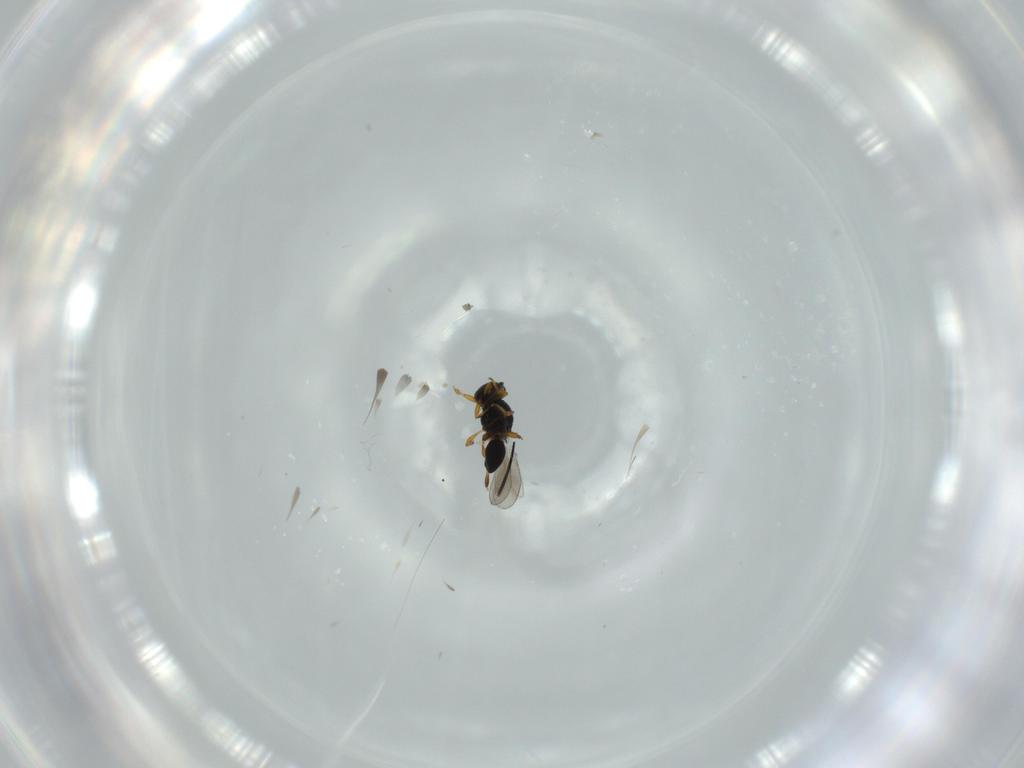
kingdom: Animalia
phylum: Arthropoda
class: Insecta
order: Hymenoptera
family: Platygastridae
